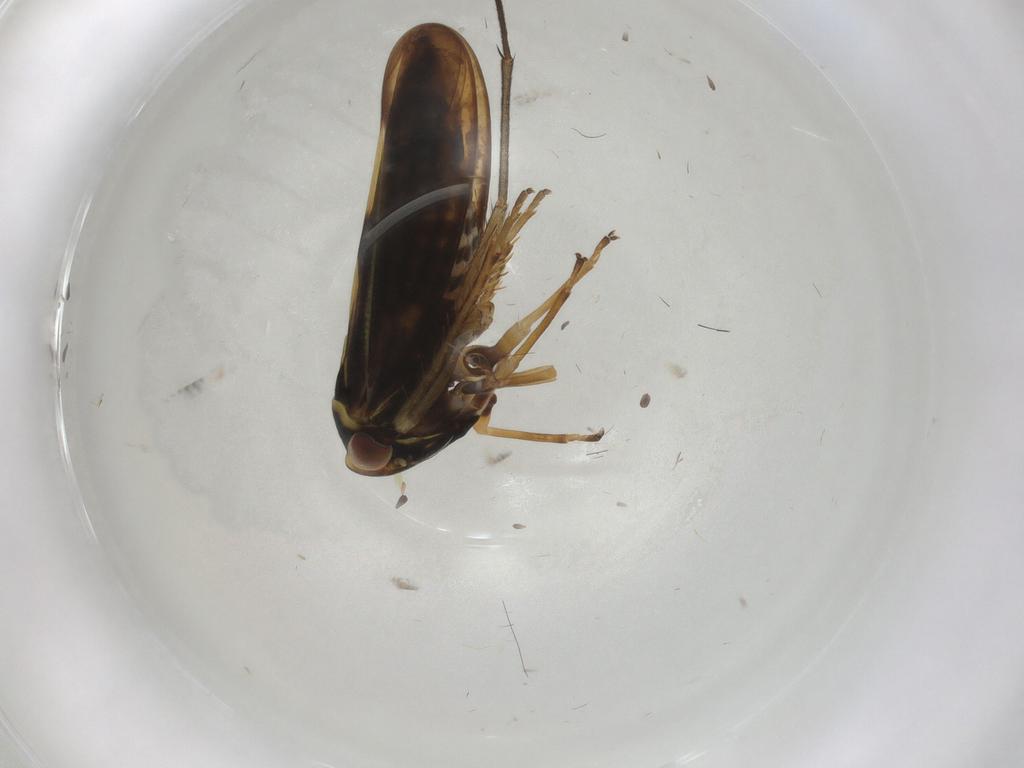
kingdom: Animalia
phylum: Arthropoda
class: Insecta
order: Hemiptera
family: Cicadellidae
